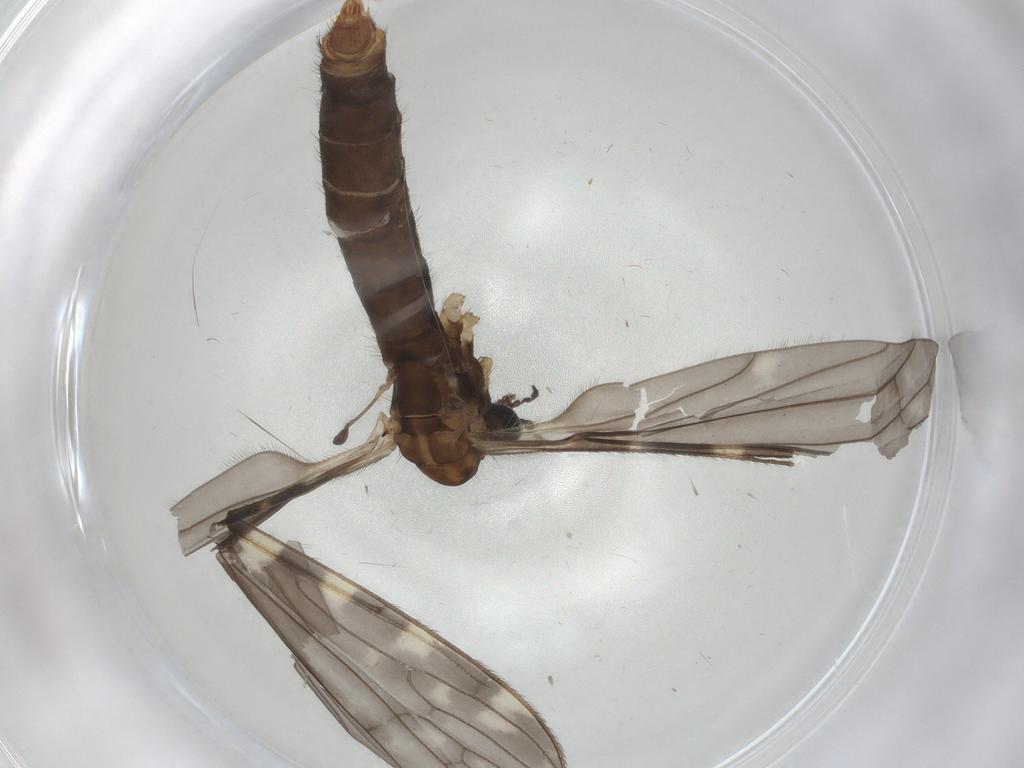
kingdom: Animalia
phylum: Arthropoda
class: Insecta
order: Diptera
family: Limoniidae
